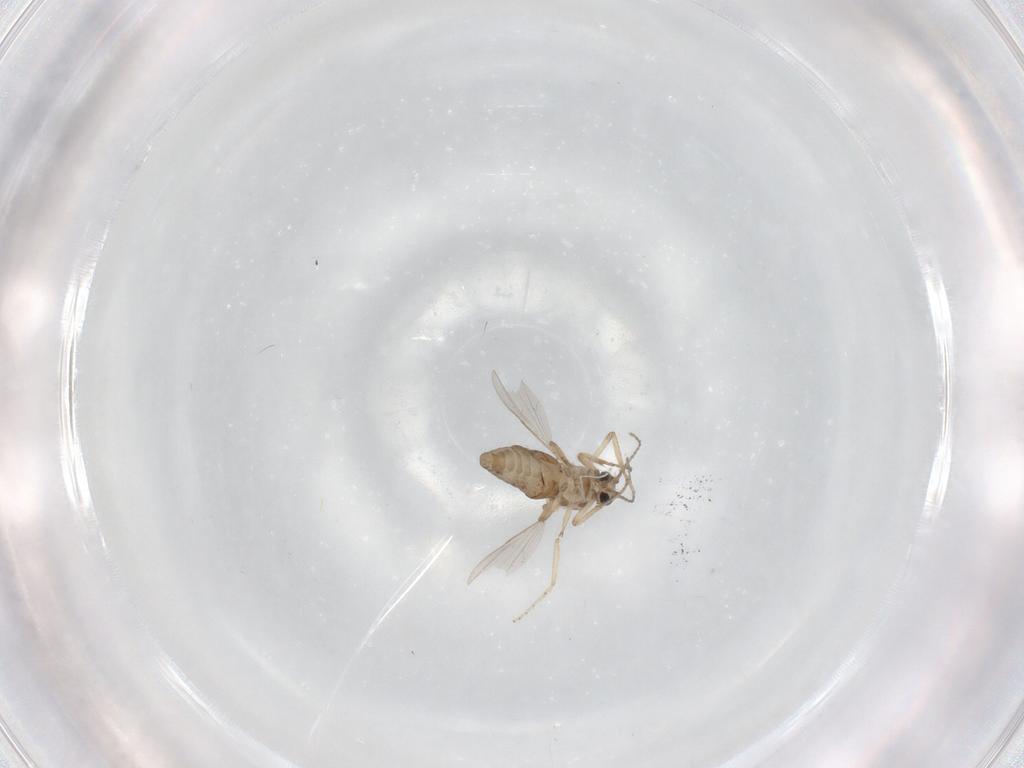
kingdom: Animalia
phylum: Arthropoda
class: Insecta
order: Diptera
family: Ceratopogonidae
